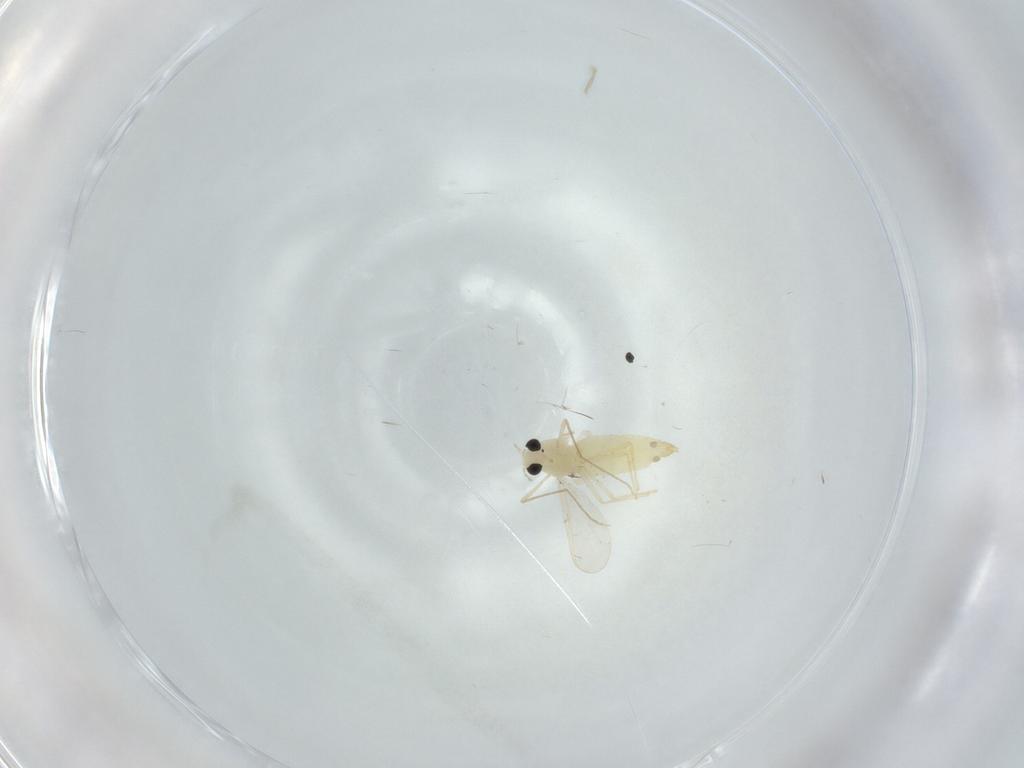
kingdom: Animalia
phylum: Arthropoda
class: Insecta
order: Diptera
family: Chironomidae
